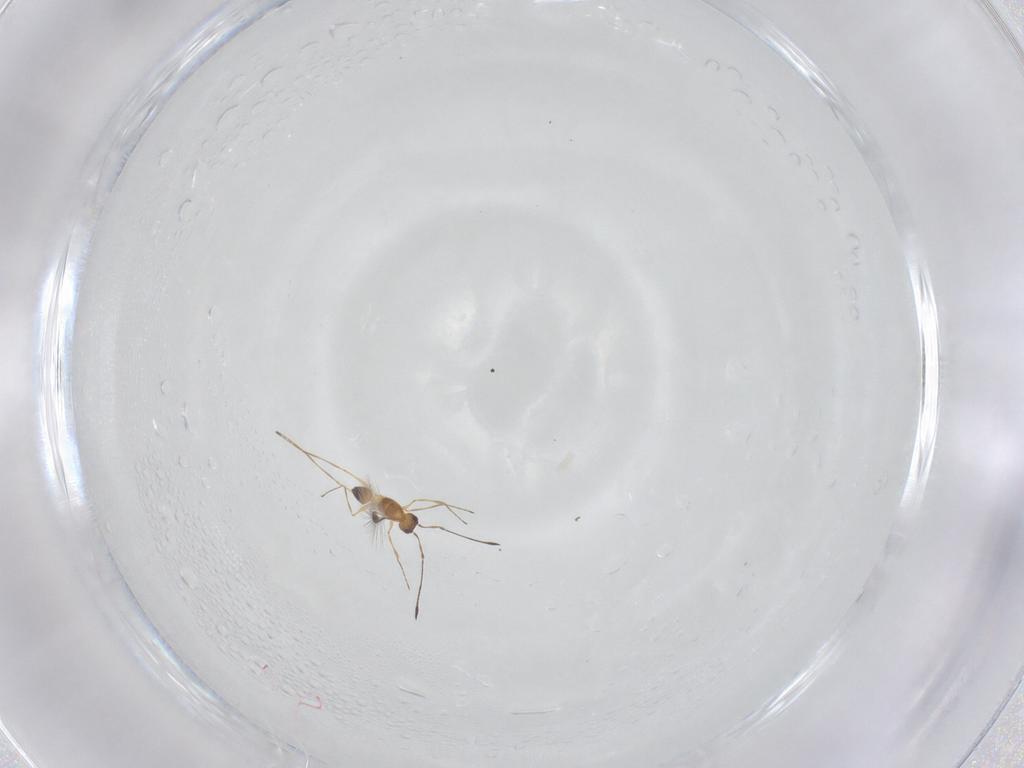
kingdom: Animalia
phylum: Arthropoda
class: Insecta
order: Hymenoptera
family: Mymaridae
